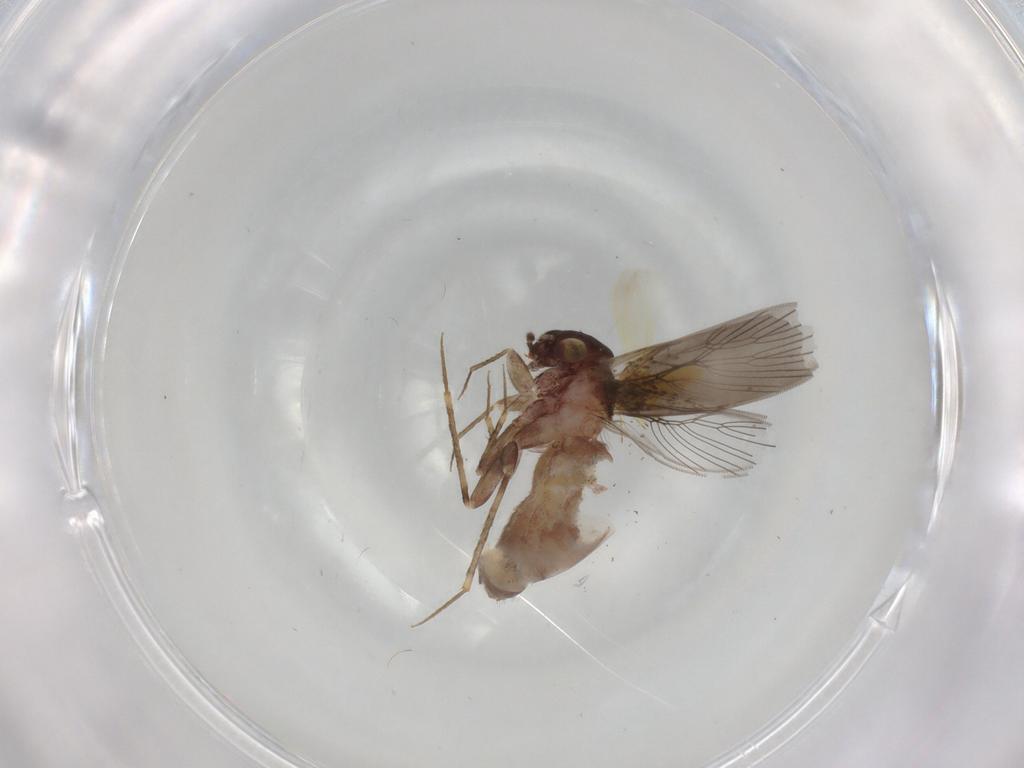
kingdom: Animalia
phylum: Arthropoda
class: Insecta
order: Psocodea
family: Lepidopsocidae
